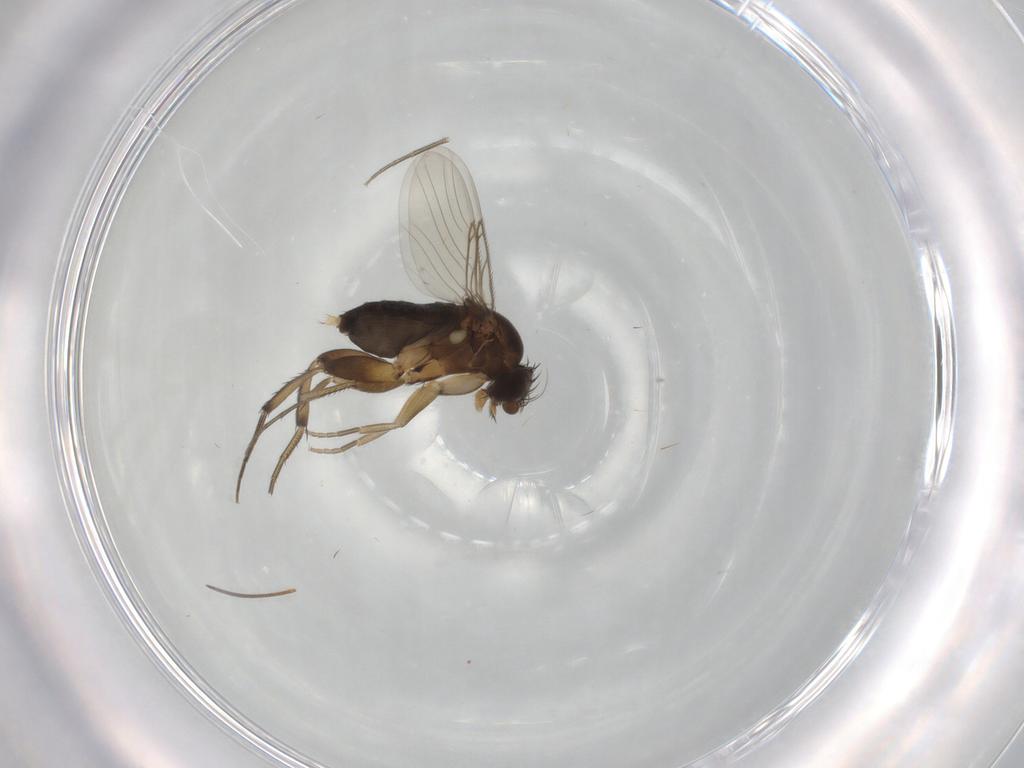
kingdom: Animalia
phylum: Arthropoda
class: Insecta
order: Diptera
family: Phoridae
